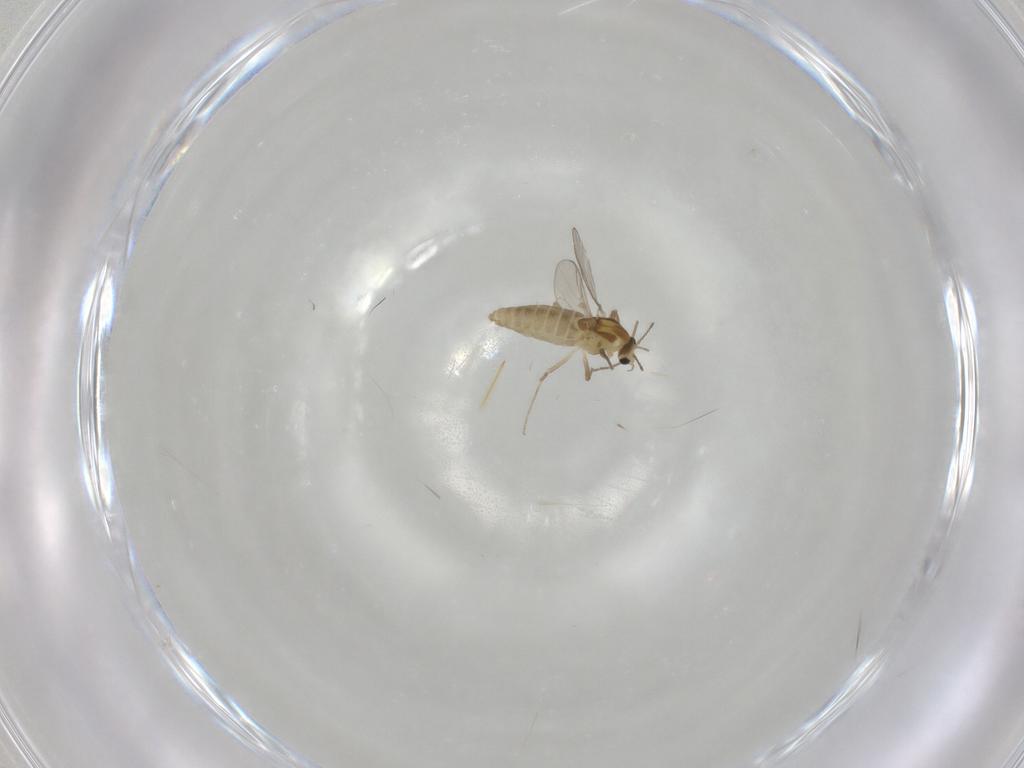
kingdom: Animalia
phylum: Arthropoda
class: Insecta
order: Diptera
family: Chironomidae
